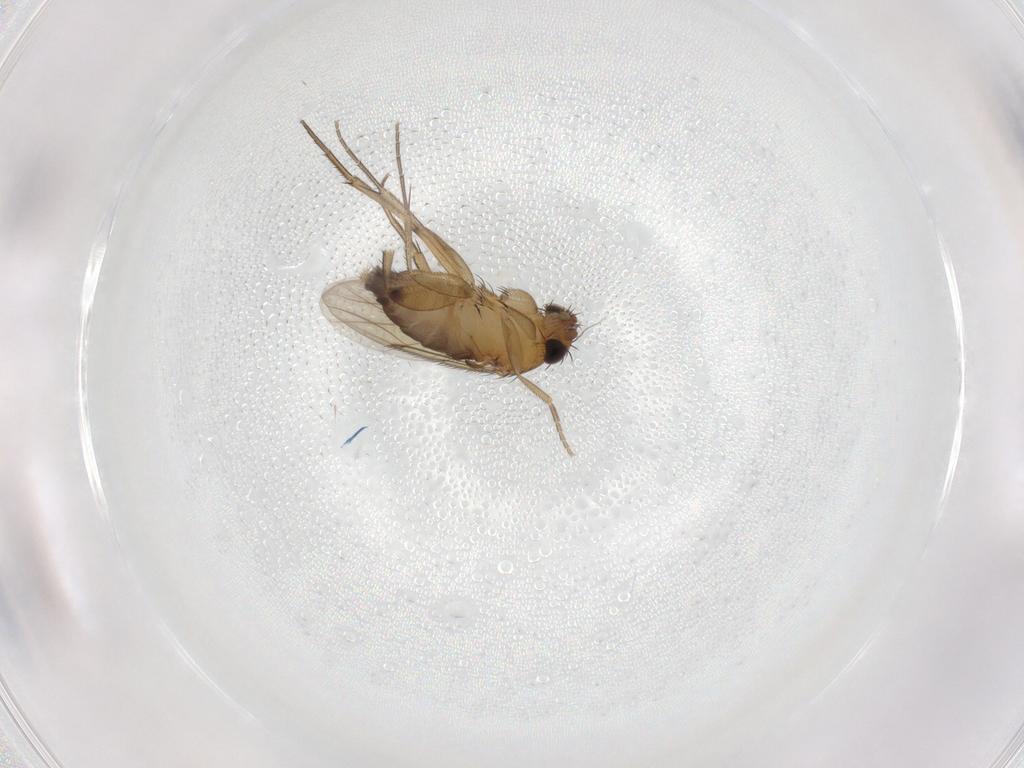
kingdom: Animalia
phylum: Arthropoda
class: Insecta
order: Diptera
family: Phoridae
